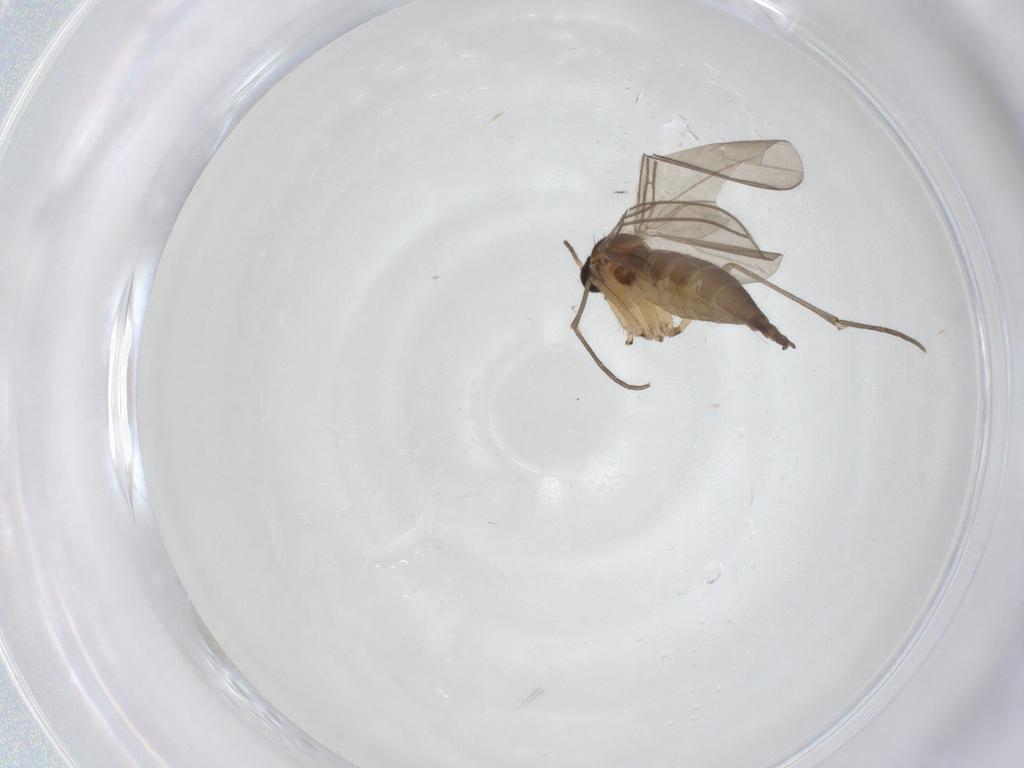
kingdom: Animalia
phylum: Arthropoda
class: Insecta
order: Diptera
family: Sciaridae
